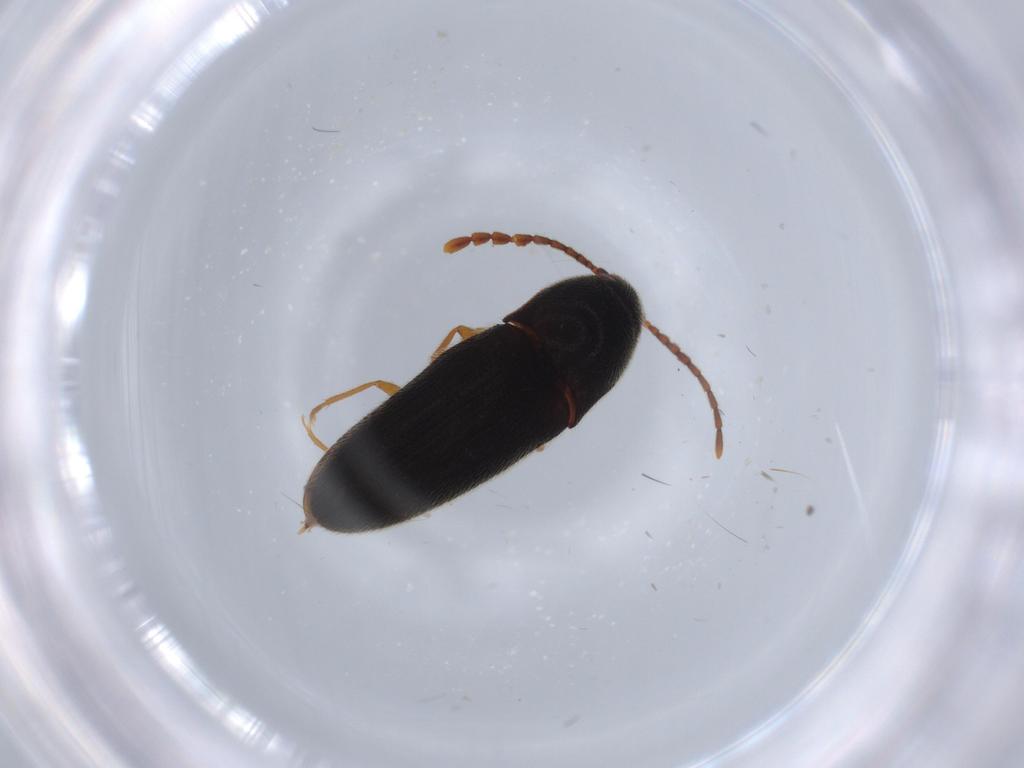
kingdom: Animalia
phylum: Arthropoda
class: Insecta
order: Coleoptera
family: Elateridae
